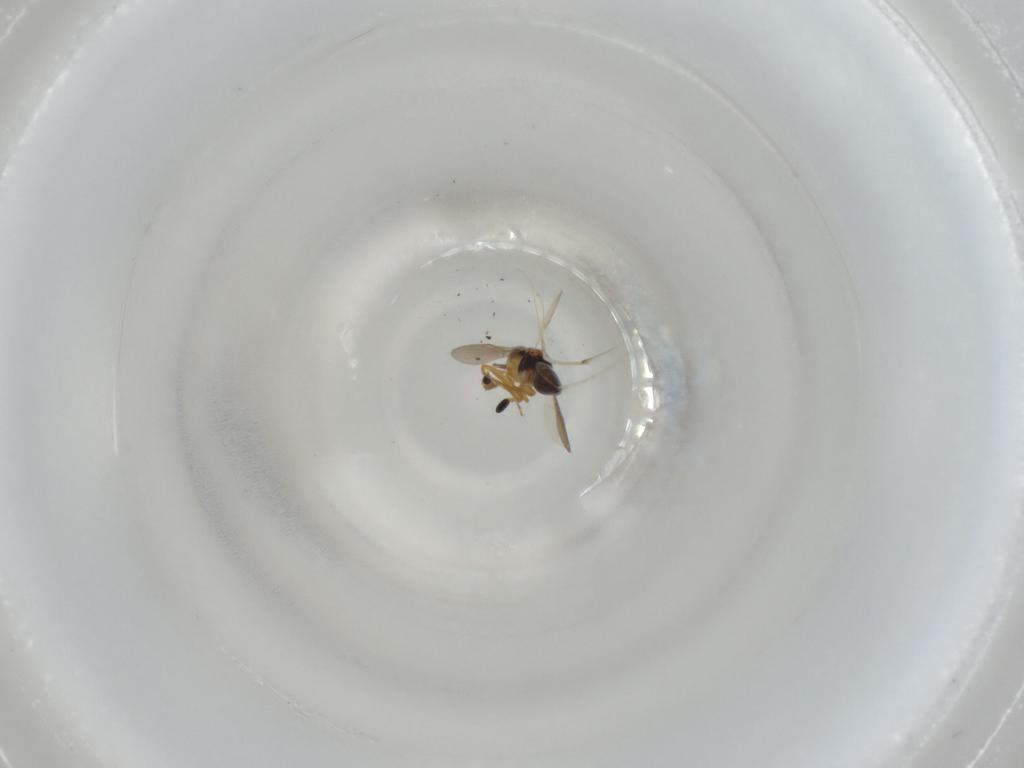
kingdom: Animalia
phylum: Arthropoda
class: Insecta
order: Hymenoptera
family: Scelionidae
